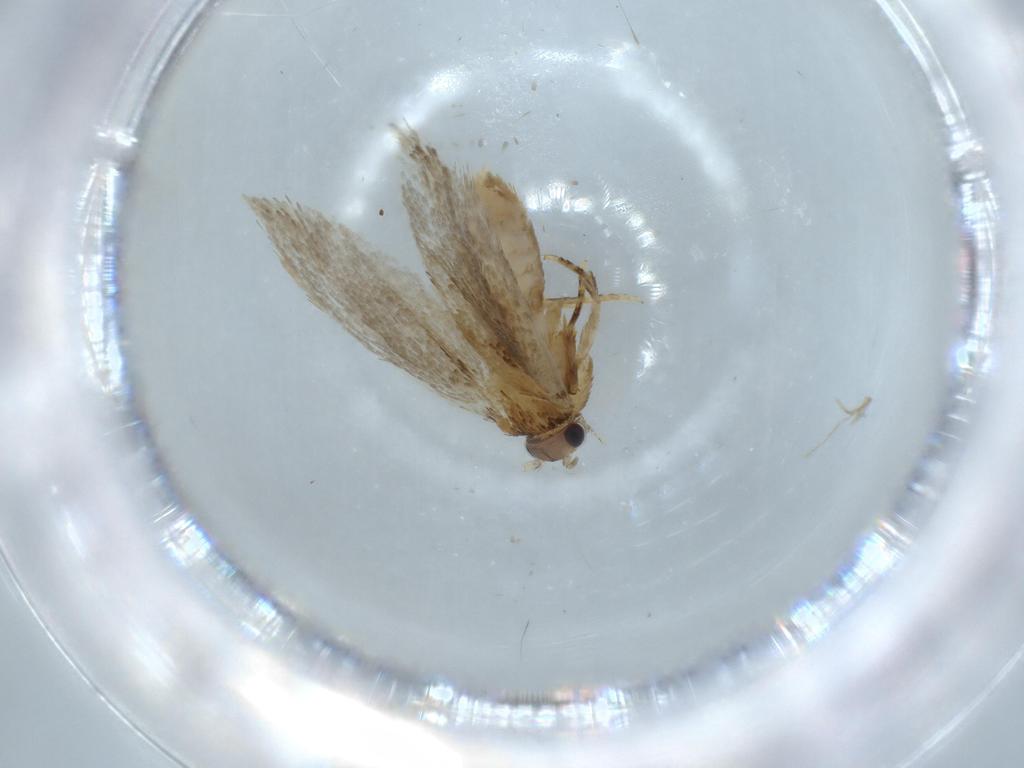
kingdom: Animalia
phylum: Arthropoda
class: Insecta
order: Lepidoptera
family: Tineidae
